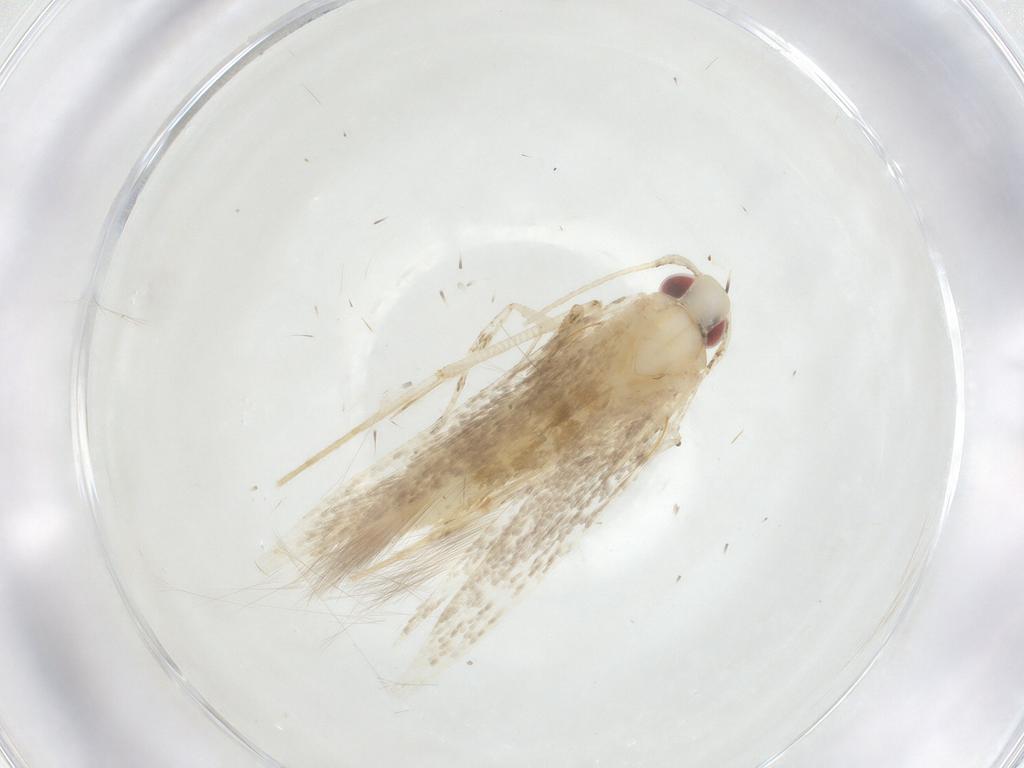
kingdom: Animalia
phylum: Arthropoda
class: Insecta
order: Lepidoptera
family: Cosmopterigidae
